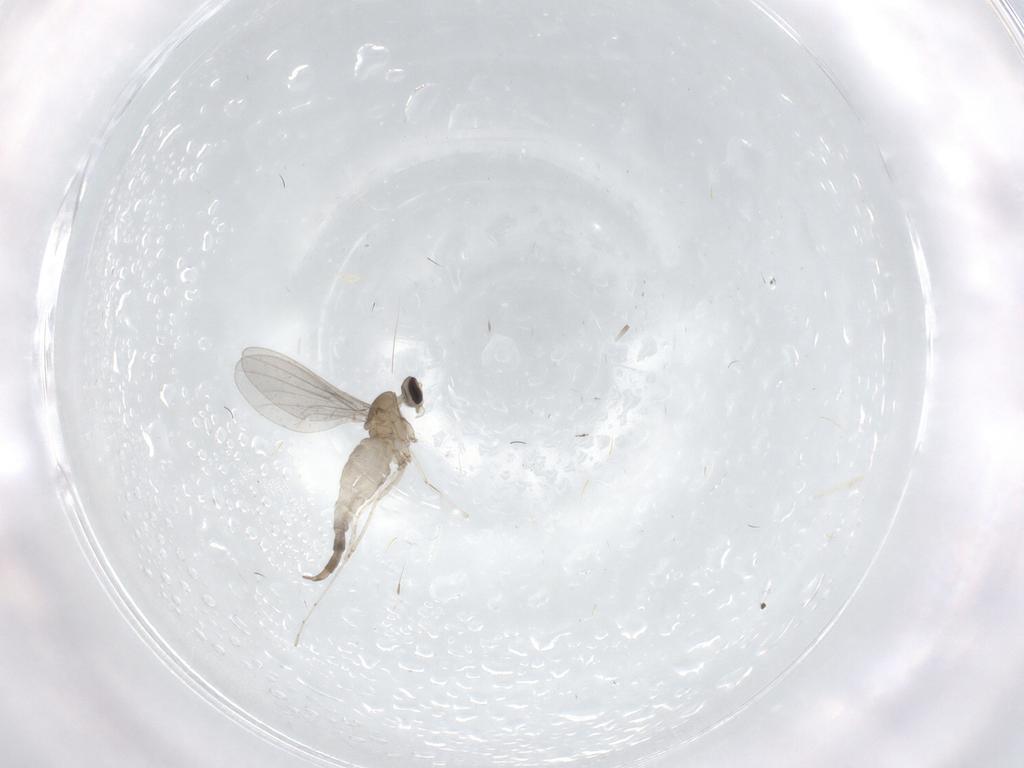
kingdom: Animalia
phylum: Arthropoda
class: Insecta
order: Diptera
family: Cecidomyiidae
